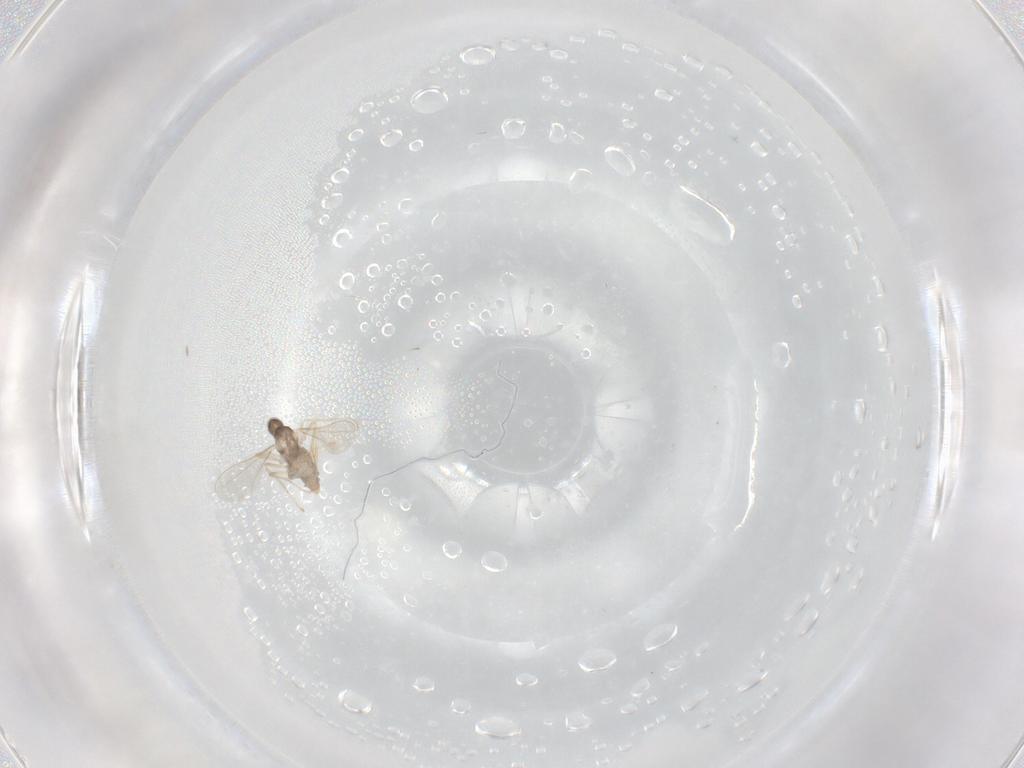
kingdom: Animalia
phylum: Arthropoda
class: Insecta
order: Diptera
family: Cecidomyiidae
